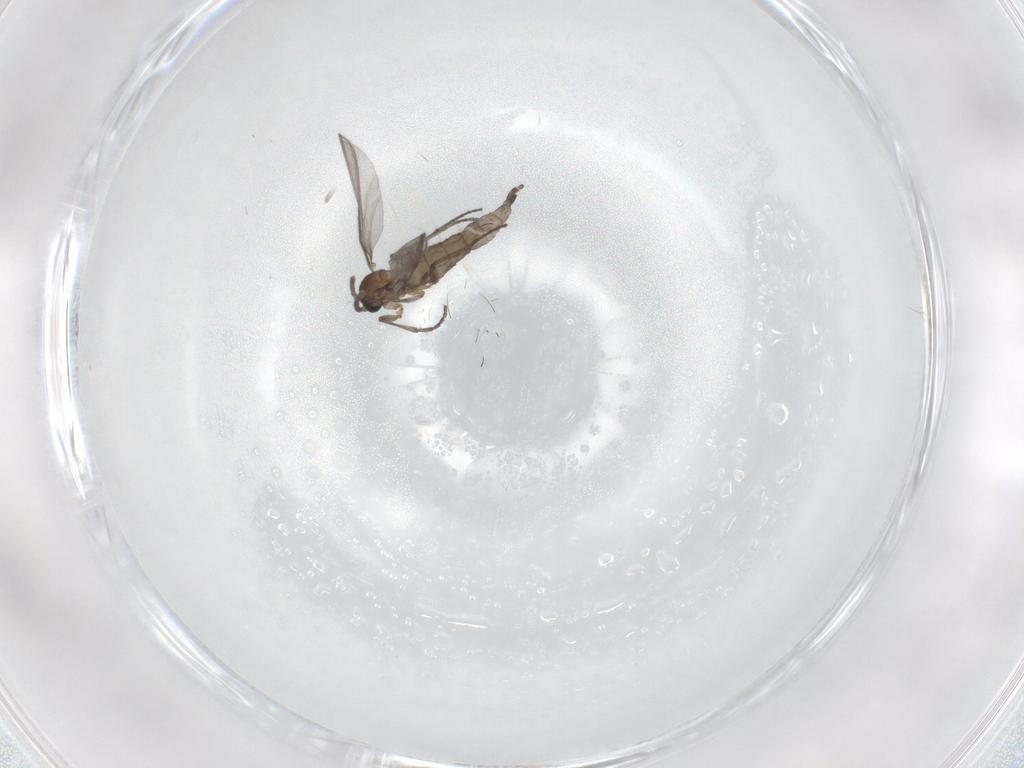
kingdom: Animalia
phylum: Arthropoda
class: Insecta
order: Diptera
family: Sciaridae
